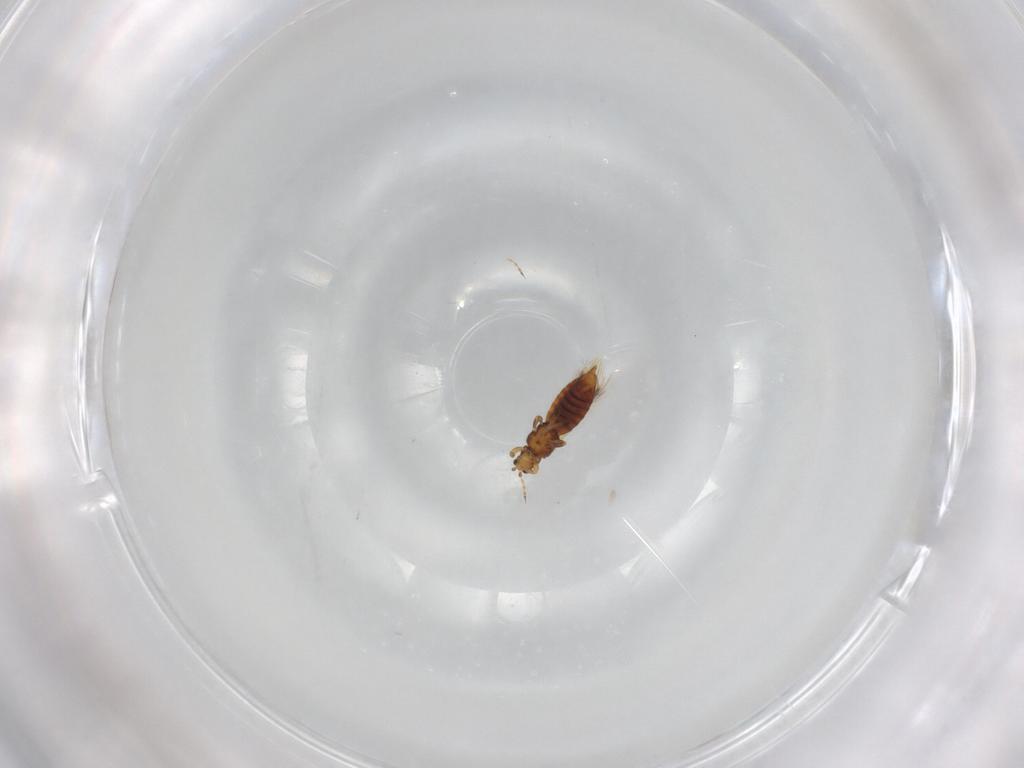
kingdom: Animalia
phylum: Arthropoda
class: Insecta
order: Thysanoptera
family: Thripidae
